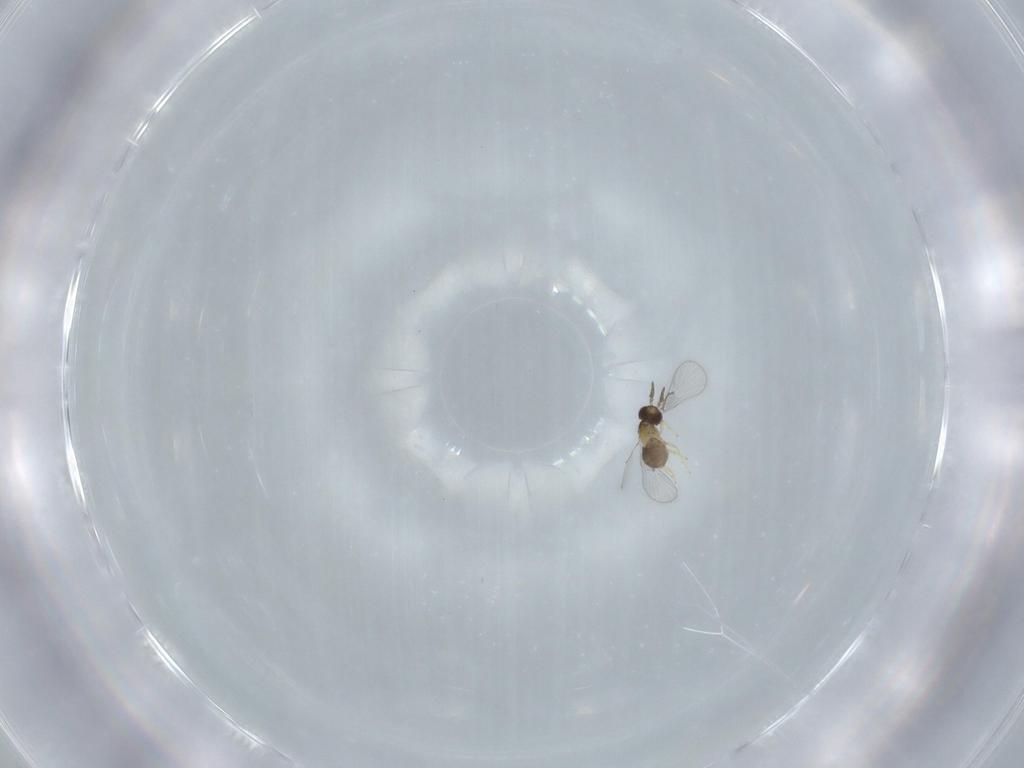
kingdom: Animalia
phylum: Arthropoda
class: Insecta
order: Hymenoptera
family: Trichogrammatidae
